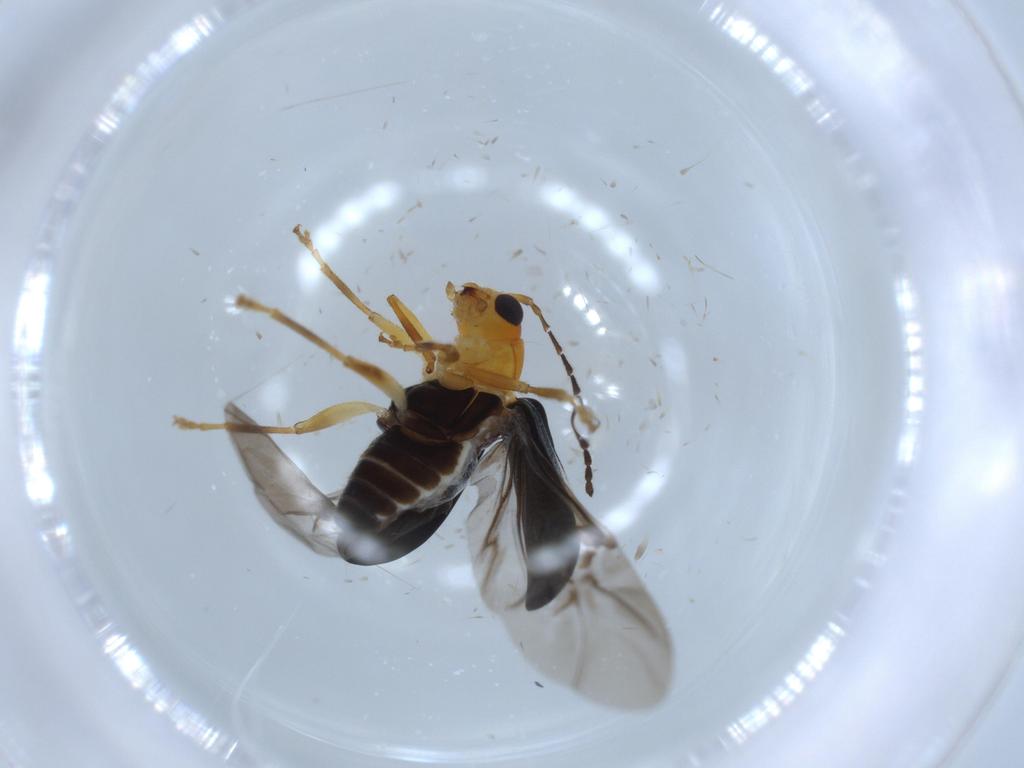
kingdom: Animalia
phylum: Arthropoda
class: Insecta
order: Coleoptera
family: Chrysomelidae
